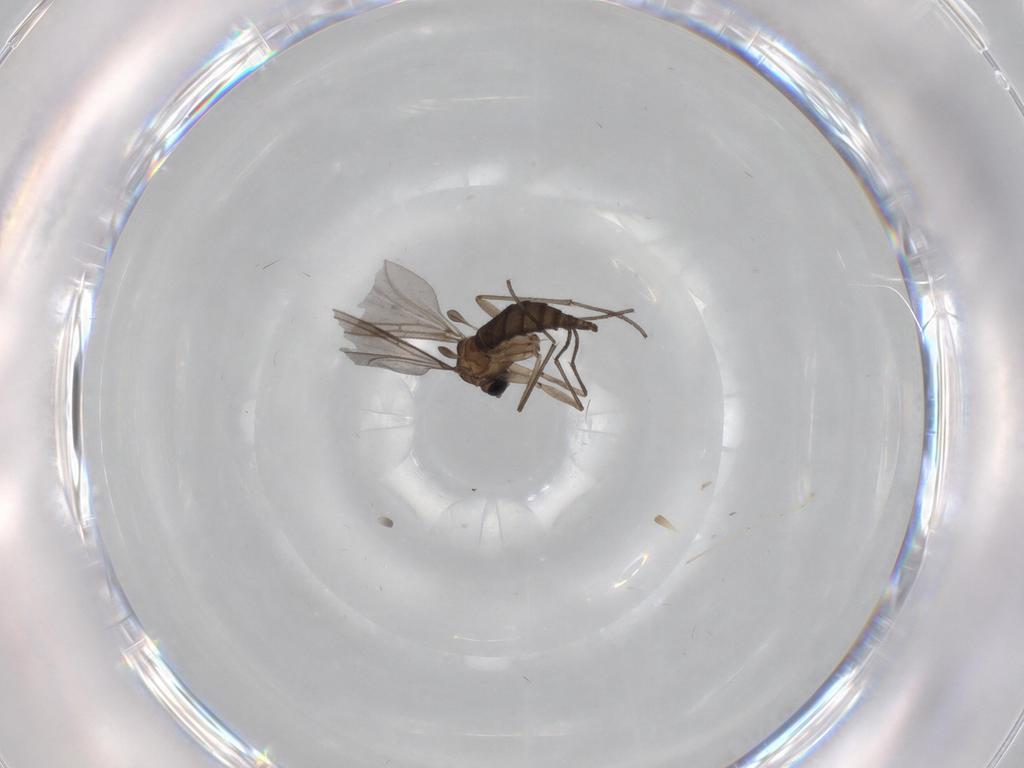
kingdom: Animalia
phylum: Arthropoda
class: Insecta
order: Diptera
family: Sciaridae
